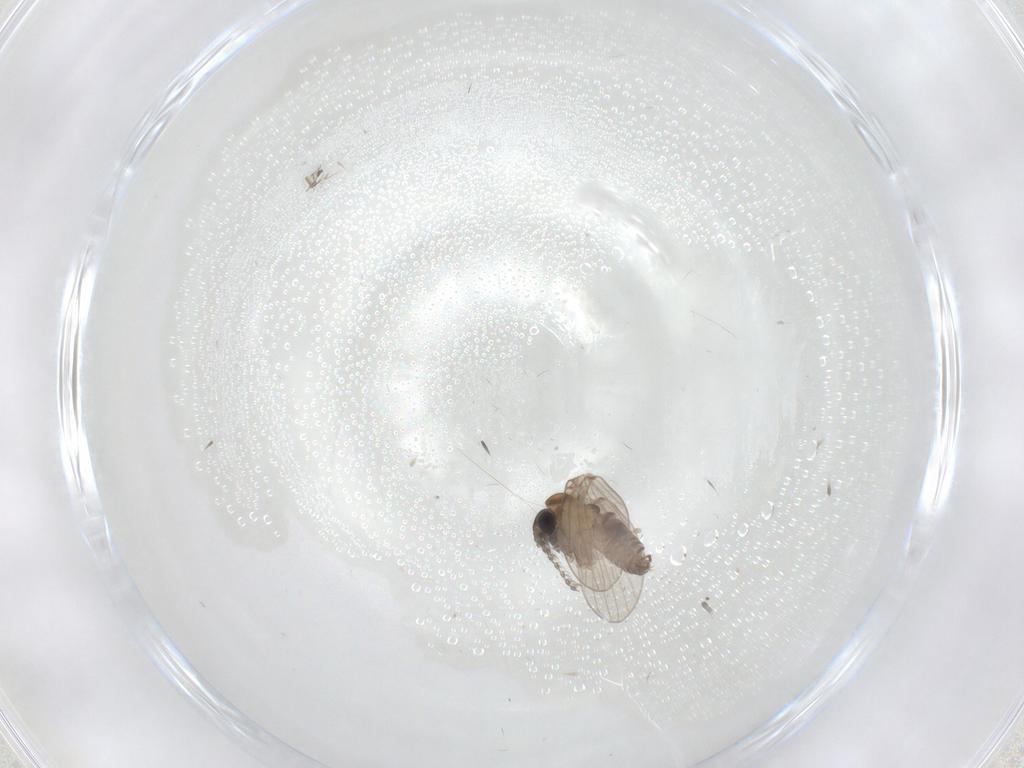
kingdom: Animalia
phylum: Arthropoda
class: Insecta
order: Diptera
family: Psychodidae
